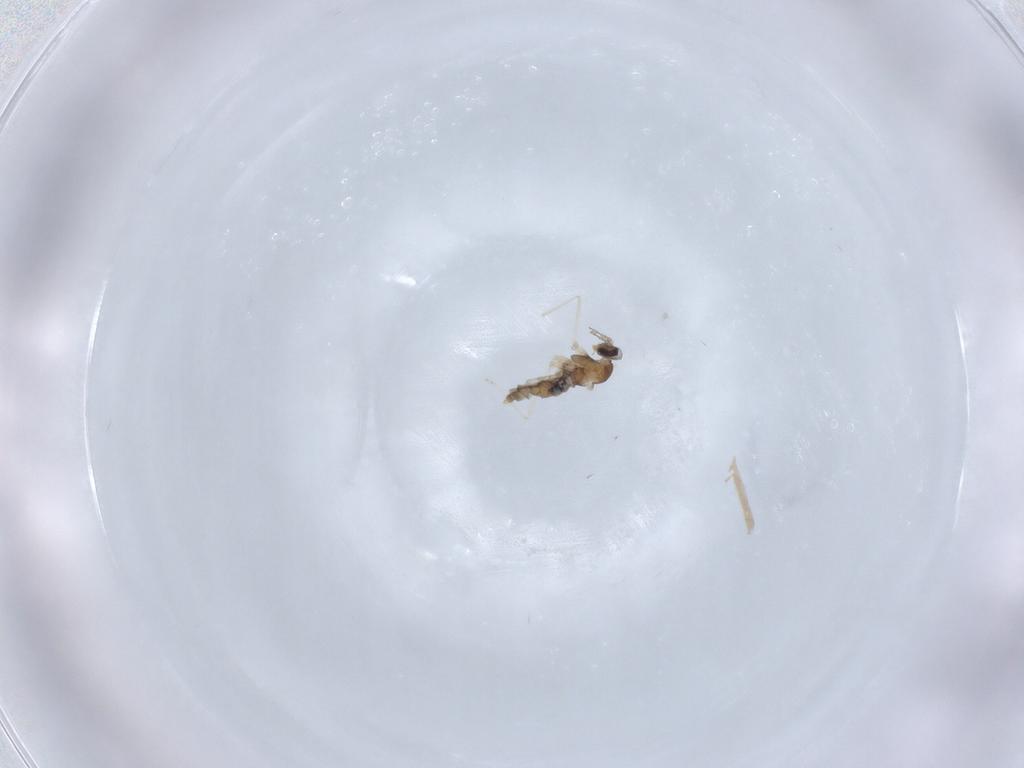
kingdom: Animalia
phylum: Arthropoda
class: Insecta
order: Diptera
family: Cecidomyiidae
